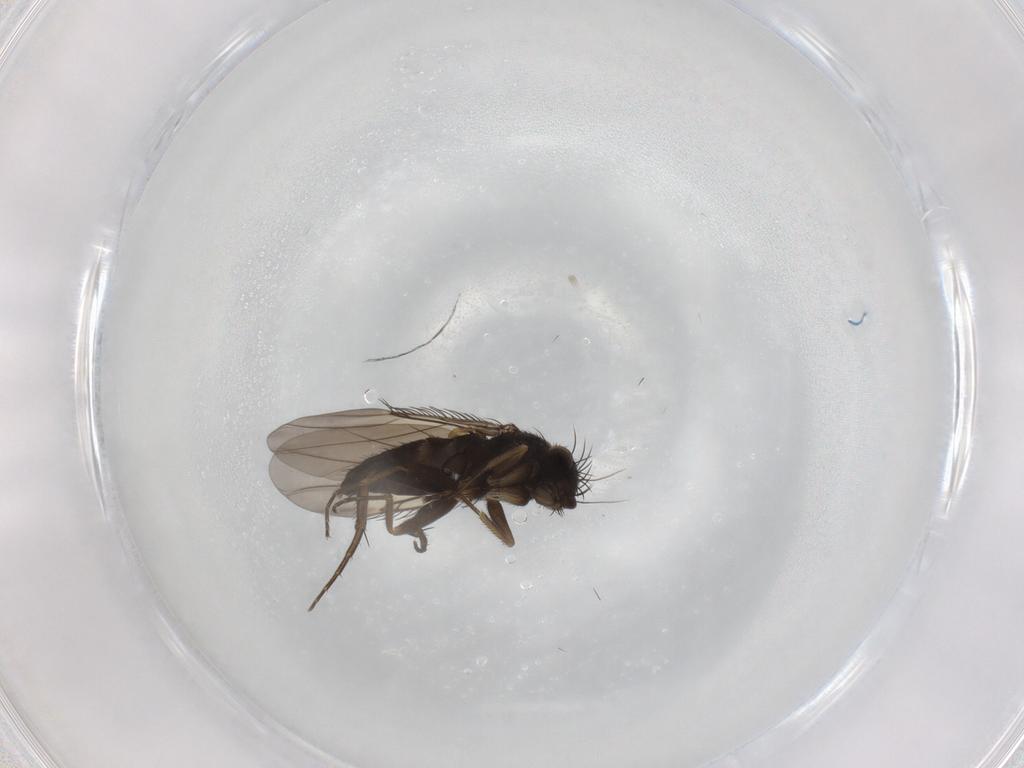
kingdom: Animalia
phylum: Arthropoda
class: Insecta
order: Diptera
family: Phoridae
